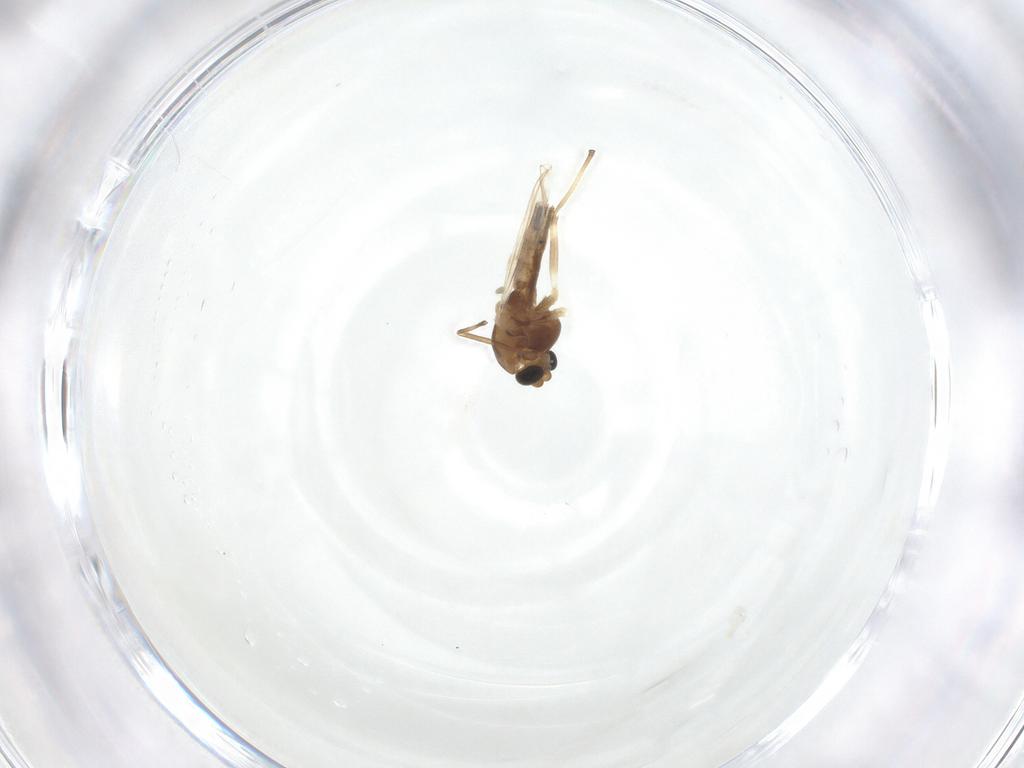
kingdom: Animalia
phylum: Arthropoda
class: Insecta
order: Diptera
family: Chironomidae
